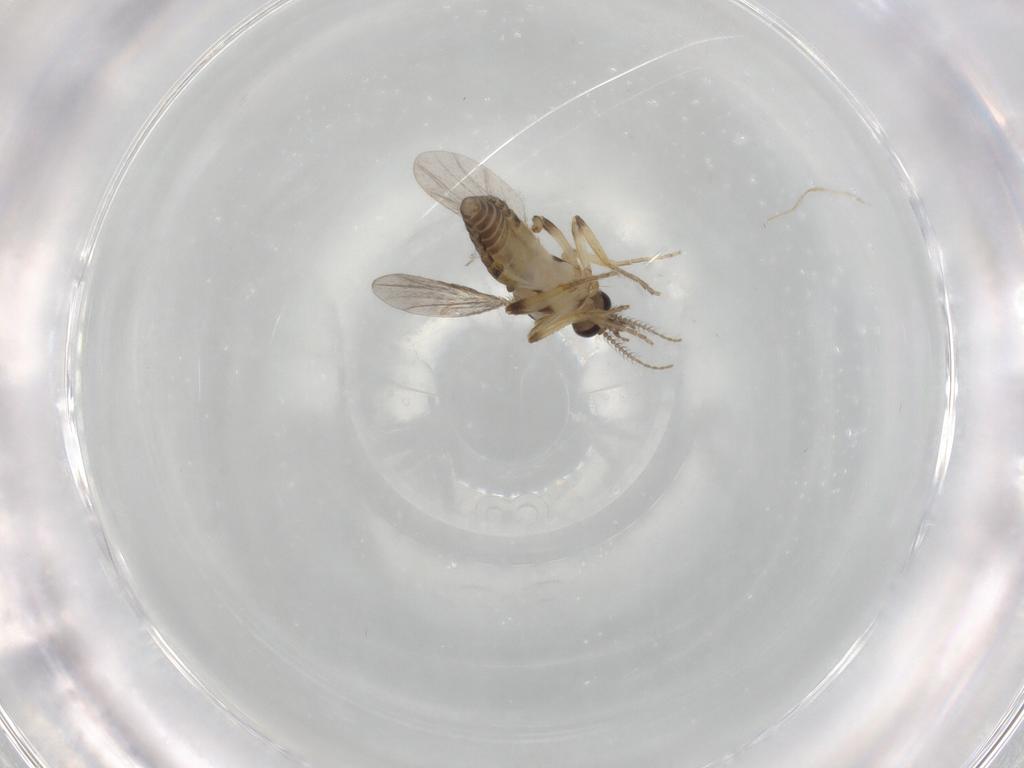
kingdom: Animalia
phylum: Arthropoda
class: Insecta
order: Diptera
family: Ceratopogonidae
